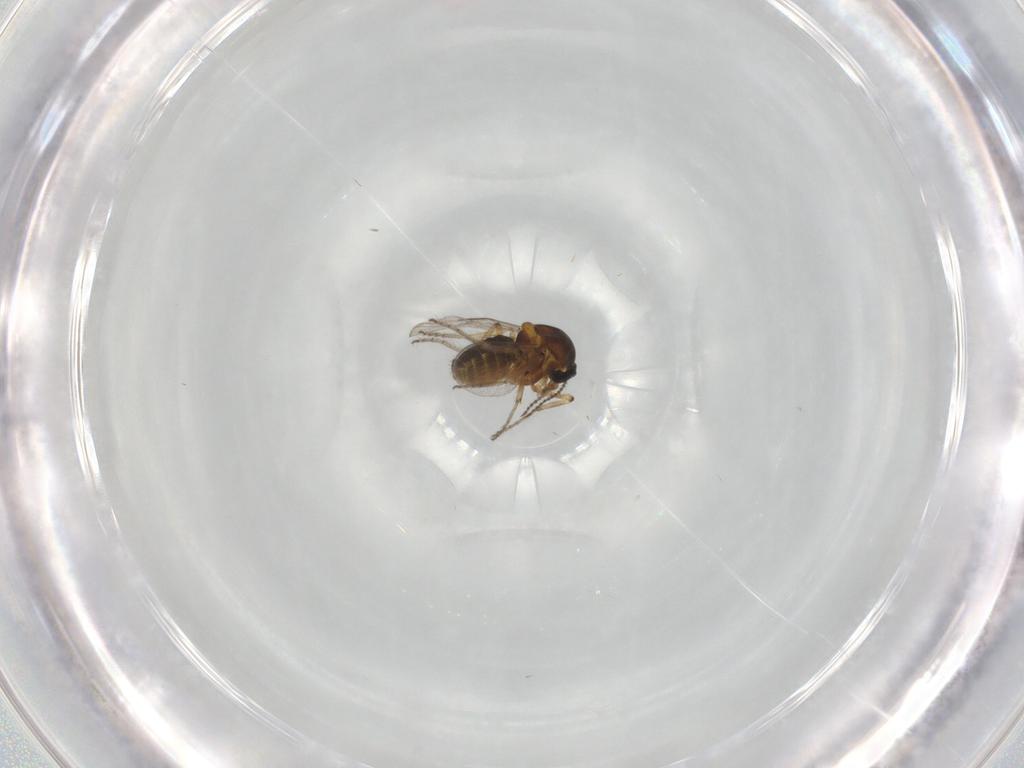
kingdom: Animalia
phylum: Arthropoda
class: Insecta
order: Diptera
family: Ceratopogonidae
